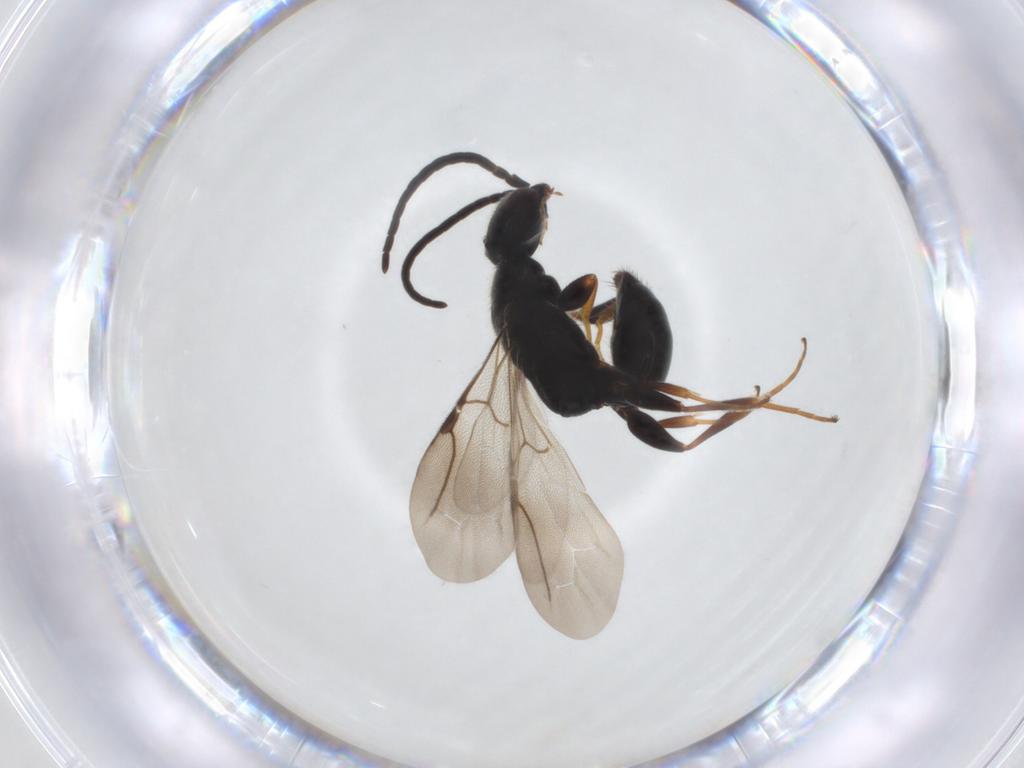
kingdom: Animalia
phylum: Arthropoda
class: Insecta
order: Hymenoptera
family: Bethylidae
